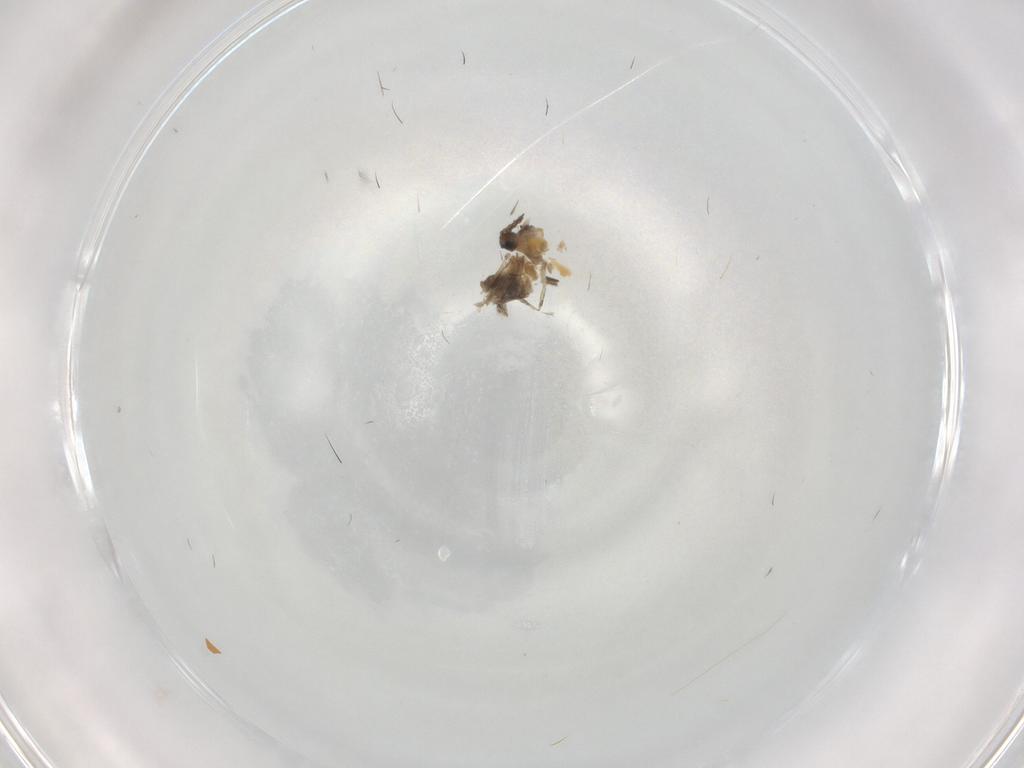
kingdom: Animalia
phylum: Arthropoda
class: Insecta
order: Diptera
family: Cecidomyiidae
